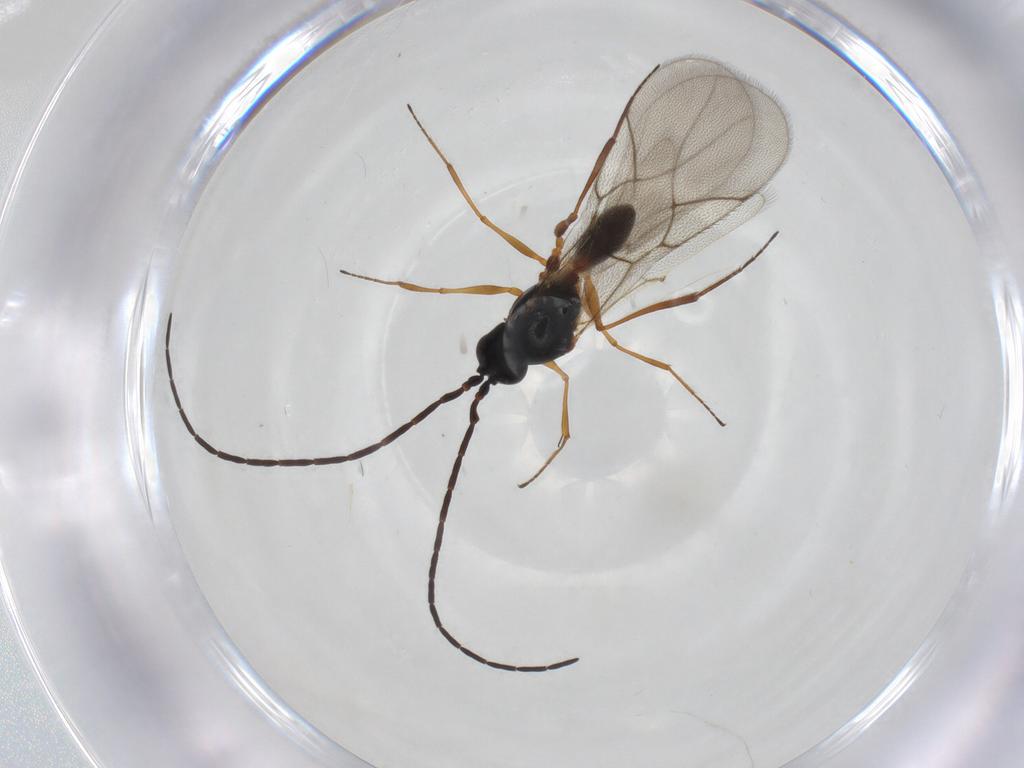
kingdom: Animalia
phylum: Arthropoda
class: Insecta
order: Hymenoptera
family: Figitidae
